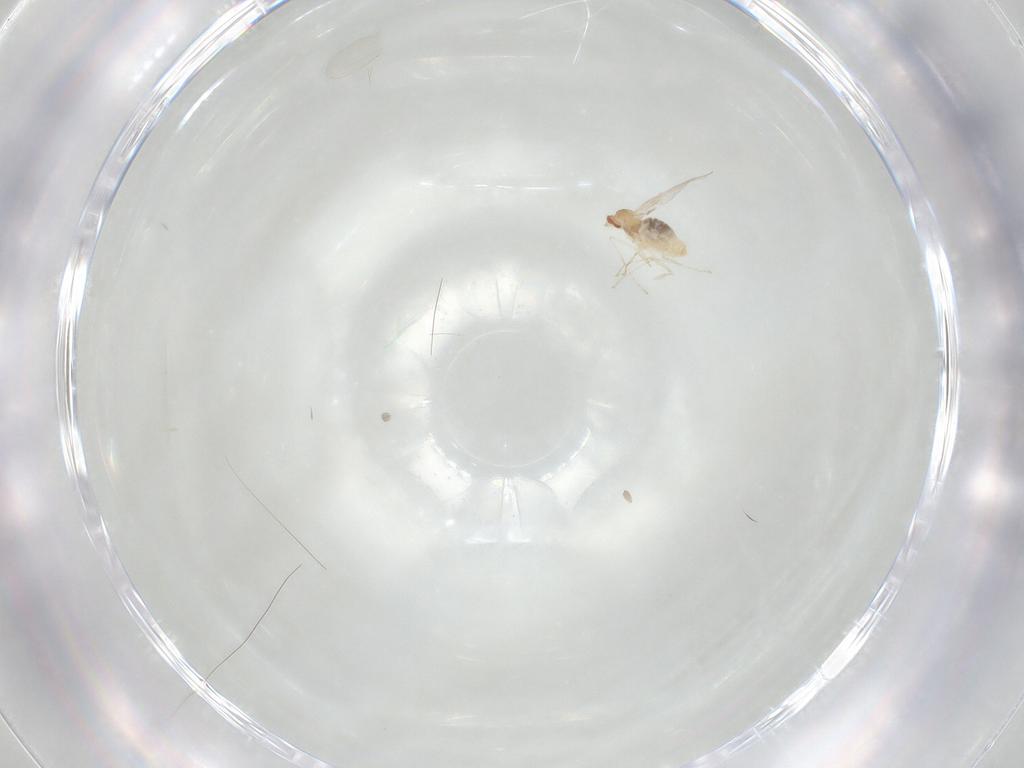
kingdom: Animalia
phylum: Arthropoda
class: Insecta
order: Diptera
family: Cecidomyiidae
